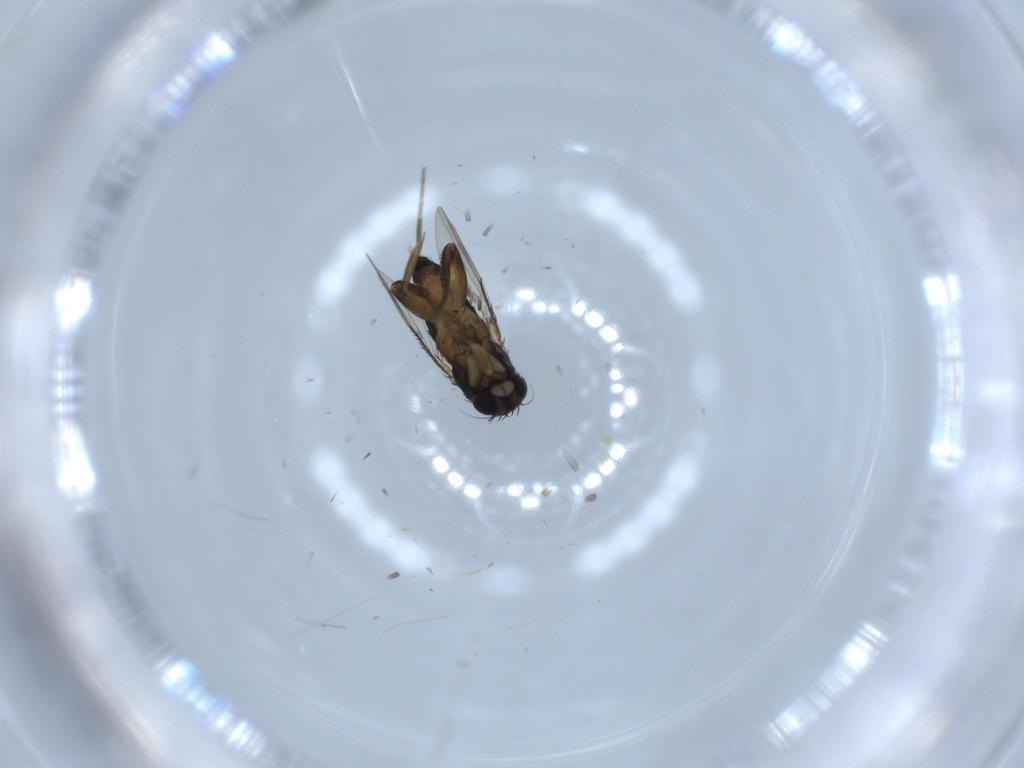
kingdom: Animalia
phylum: Arthropoda
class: Insecta
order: Diptera
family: Phoridae
